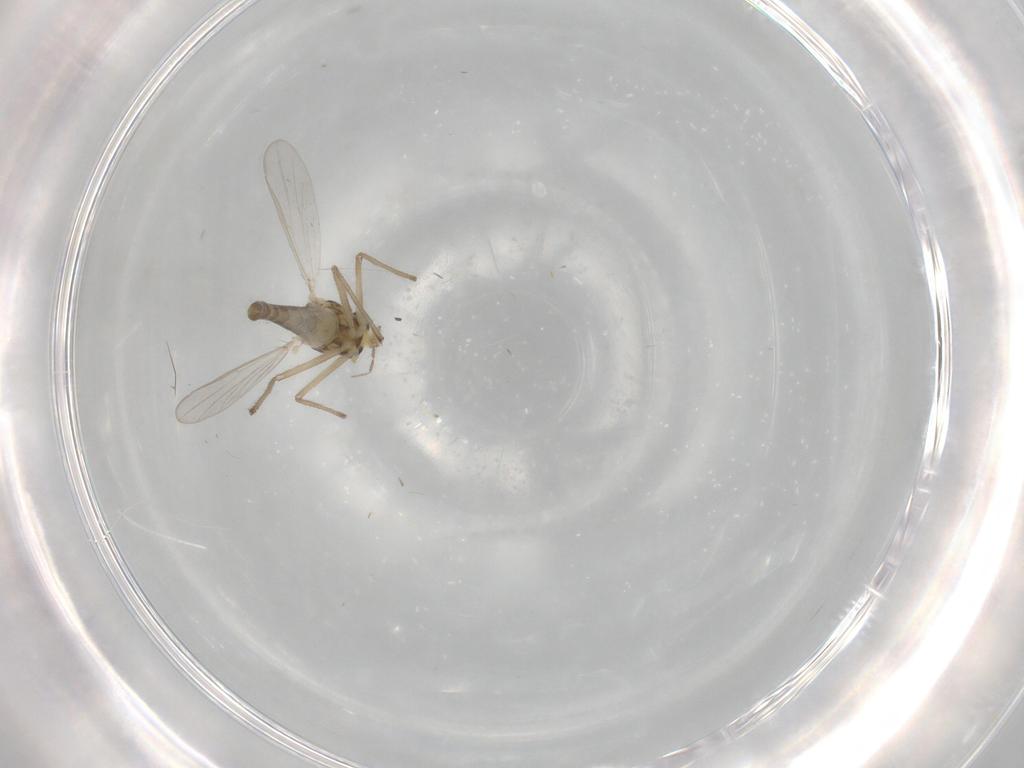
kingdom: Animalia
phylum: Arthropoda
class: Insecta
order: Diptera
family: Chironomidae
